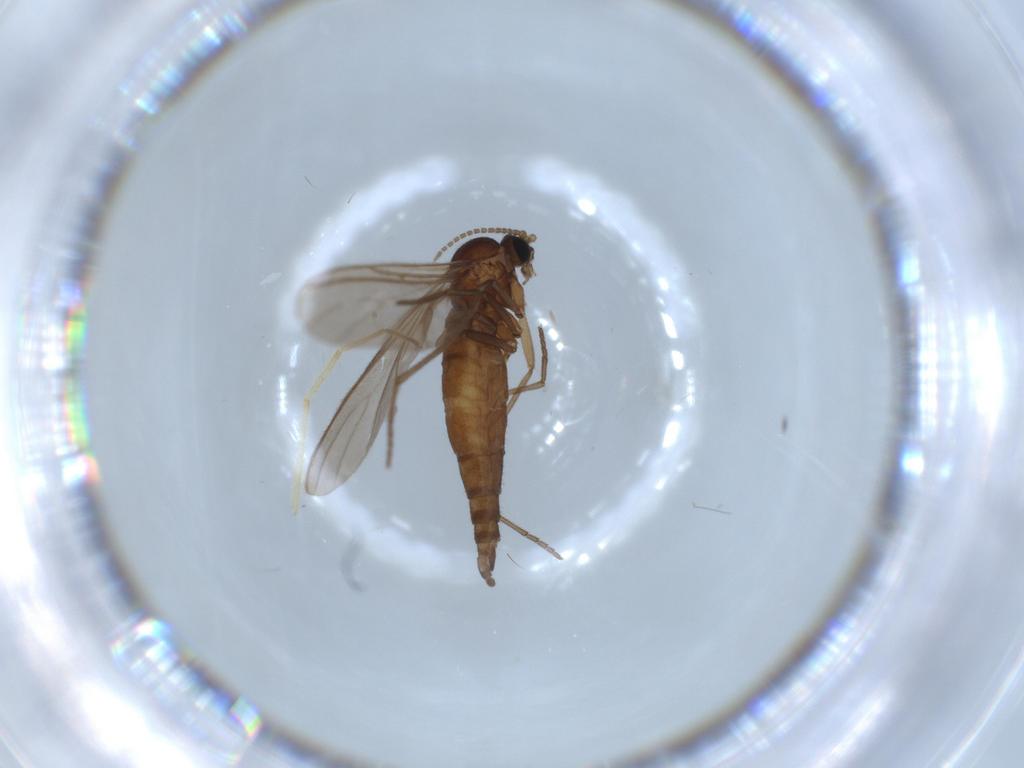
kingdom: Animalia
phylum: Arthropoda
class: Insecta
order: Diptera
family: Cecidomyiidae
